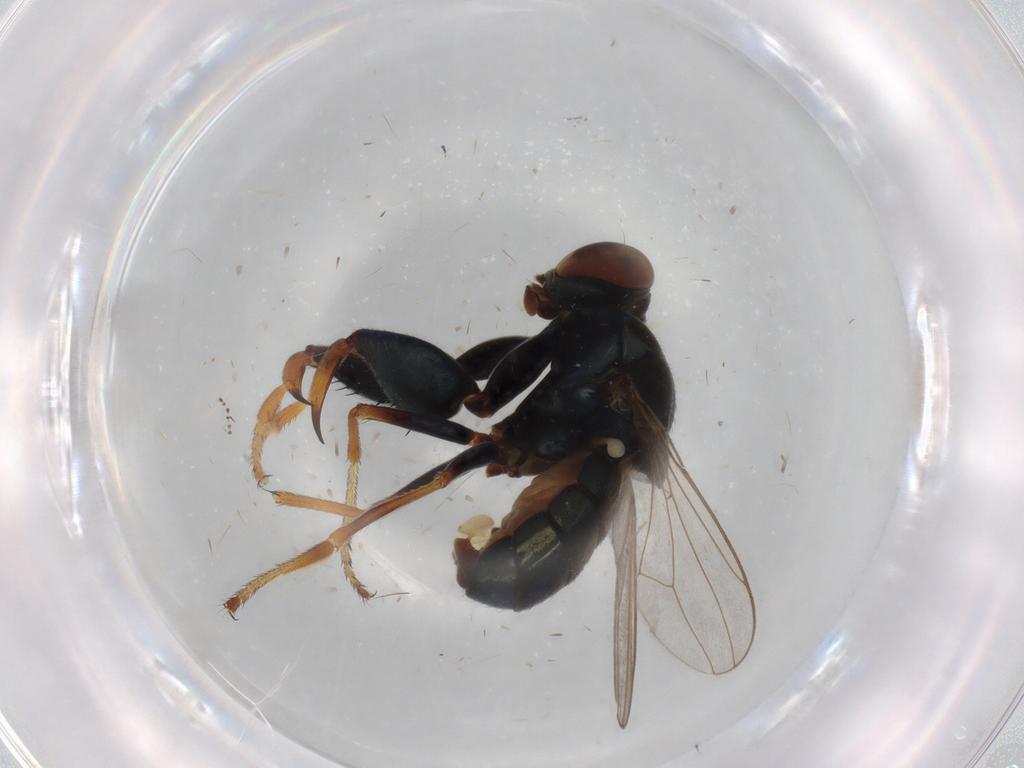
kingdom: Animalia
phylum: Arthropoda
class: Insecta
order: Diptera
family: Ephydridae
